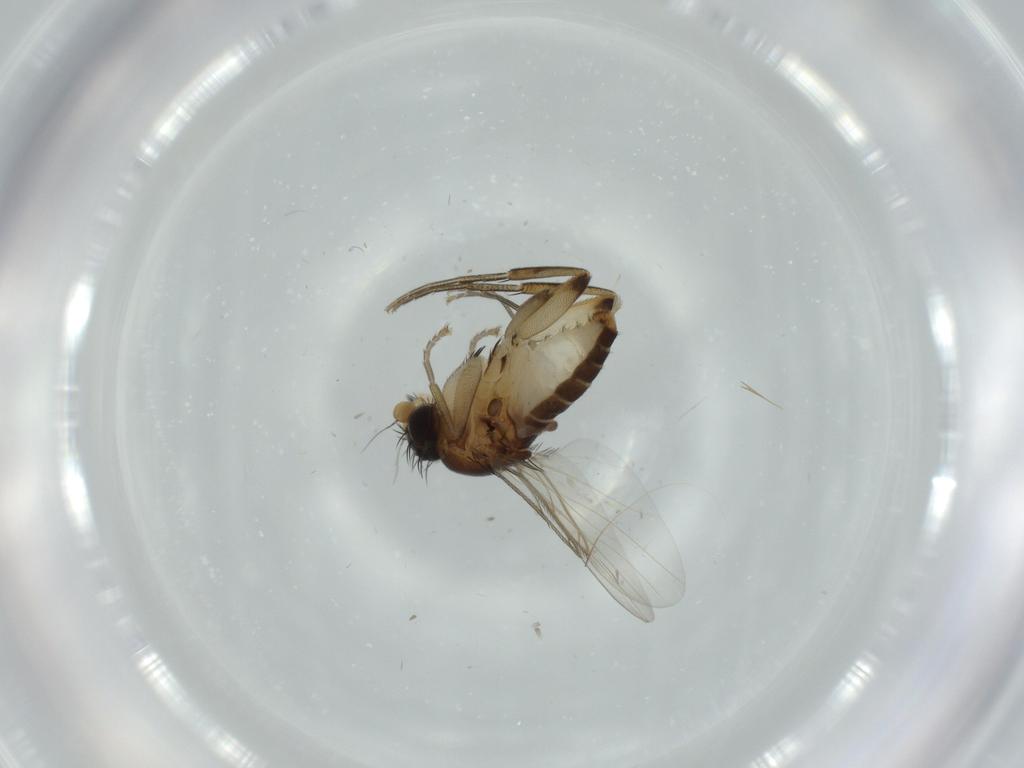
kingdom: Animalia
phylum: Arthropoda
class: Insecta
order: Diptera
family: Phoridae
